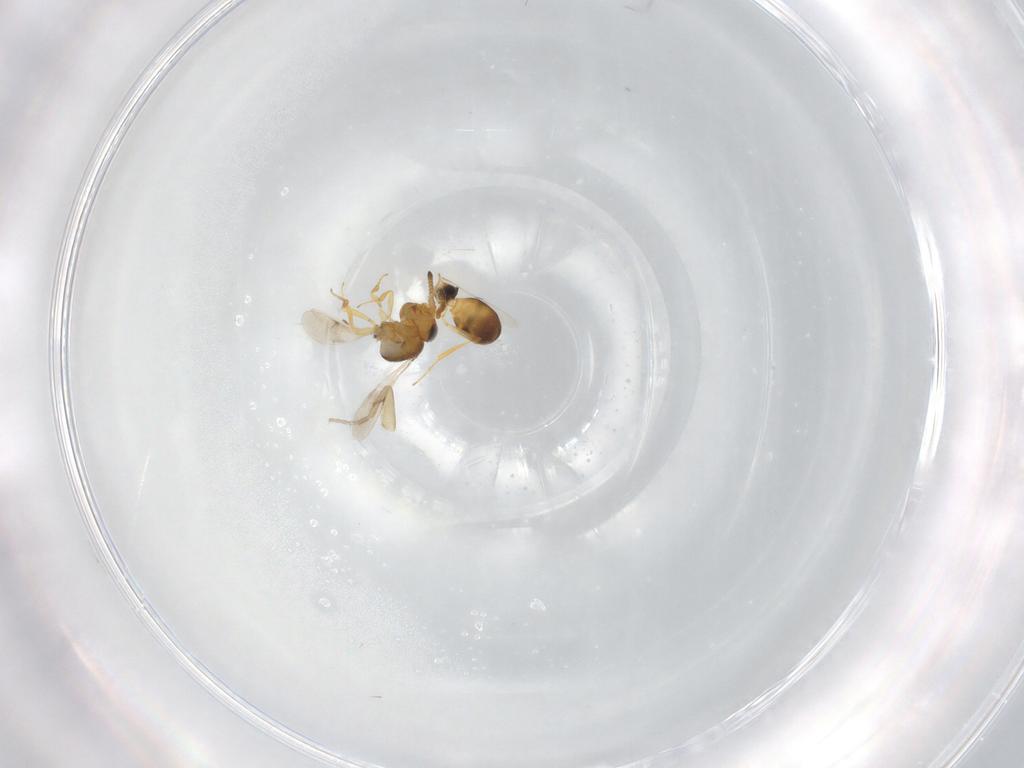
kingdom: Animalia
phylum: Arthropoda
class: Insecta
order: Hymenoptera
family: Scelionidae
